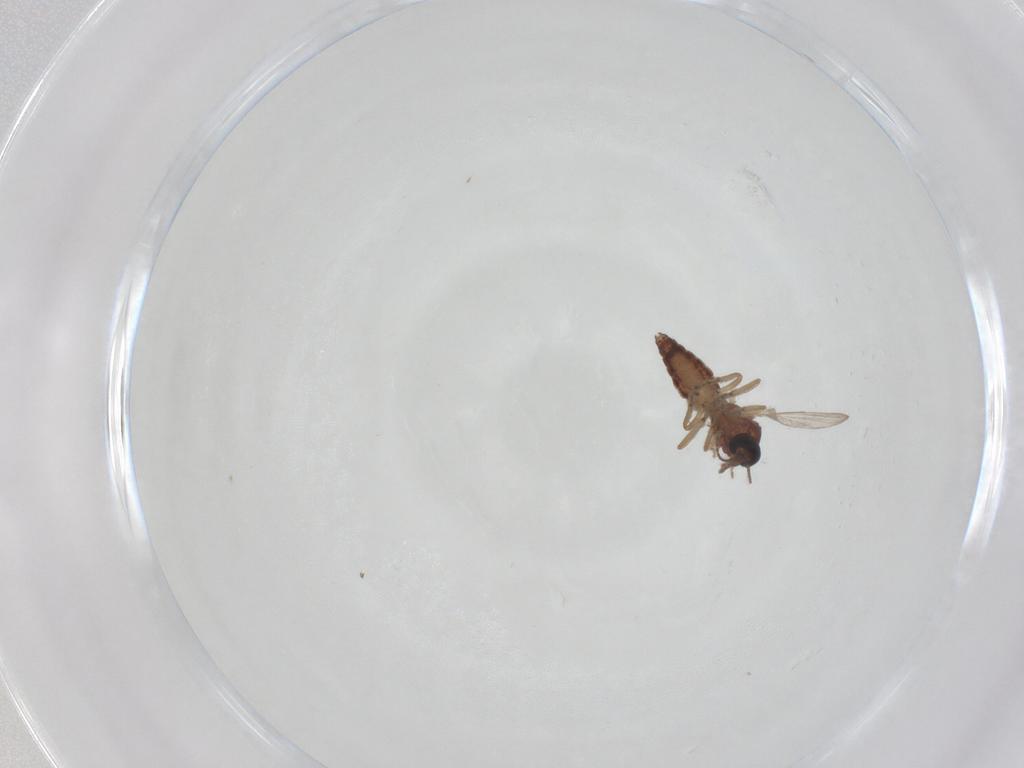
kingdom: Animalia
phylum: Arthropoda
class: Insecta
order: Diptera
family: Ceratopogonidae
